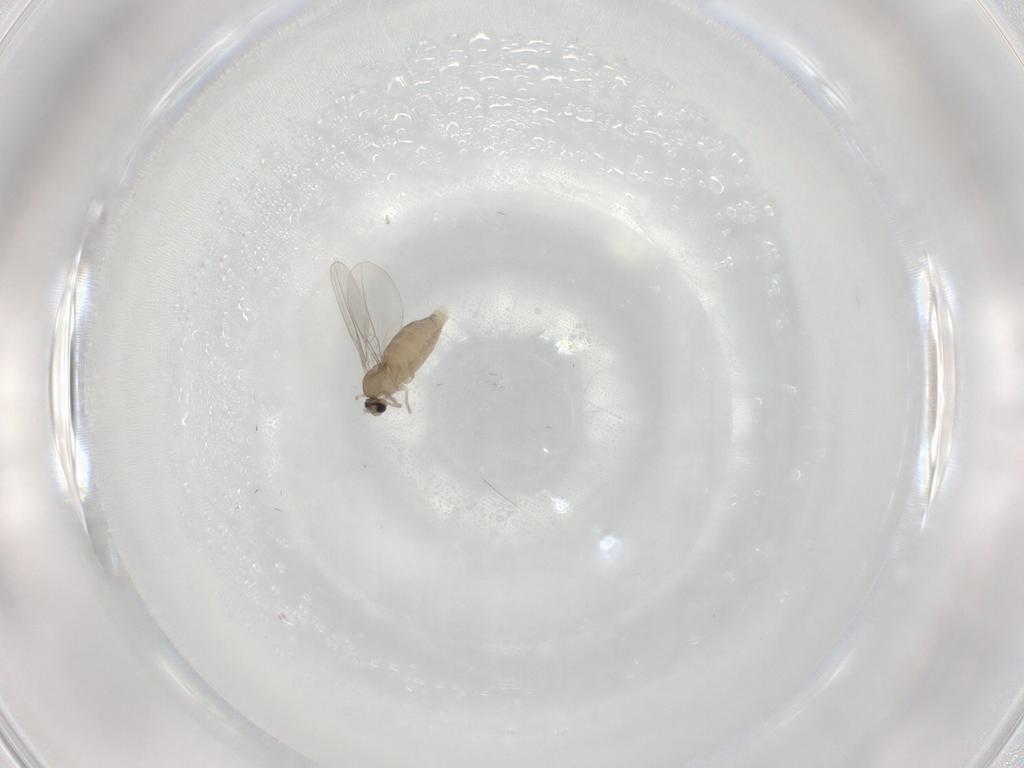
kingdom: Animalia
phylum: Arthropoda
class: Insecta
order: Diptera
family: Cecidomyiidae
